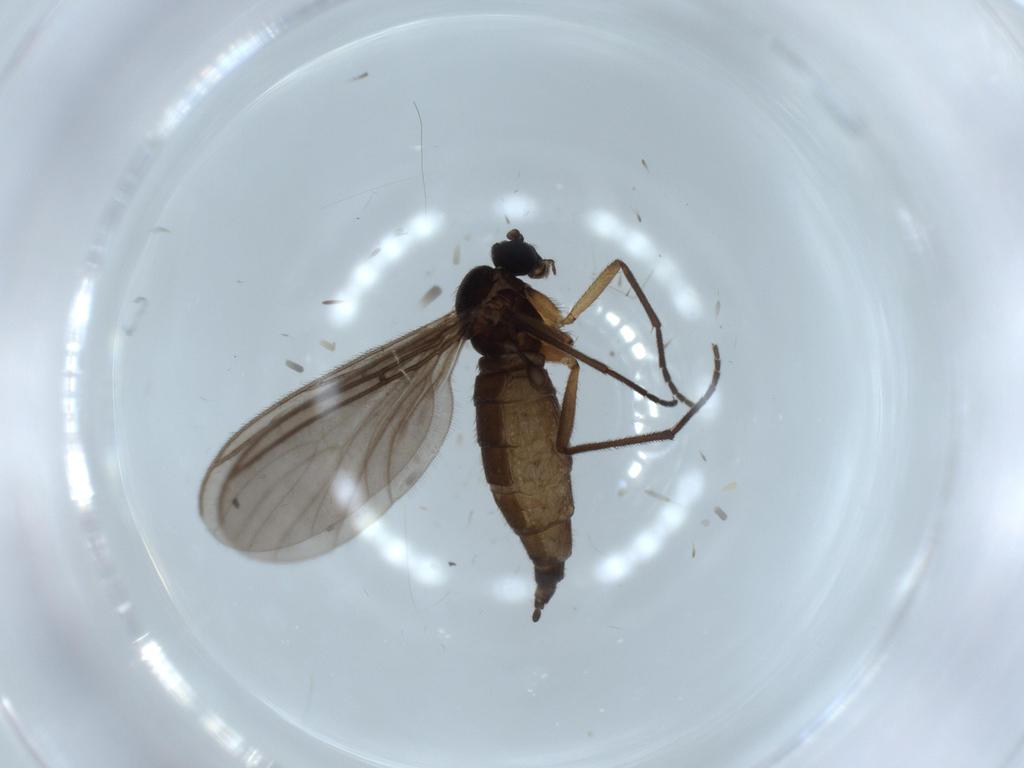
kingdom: Animalia
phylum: Arthropoda
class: Insecta
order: Diptera
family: Sciaridae
